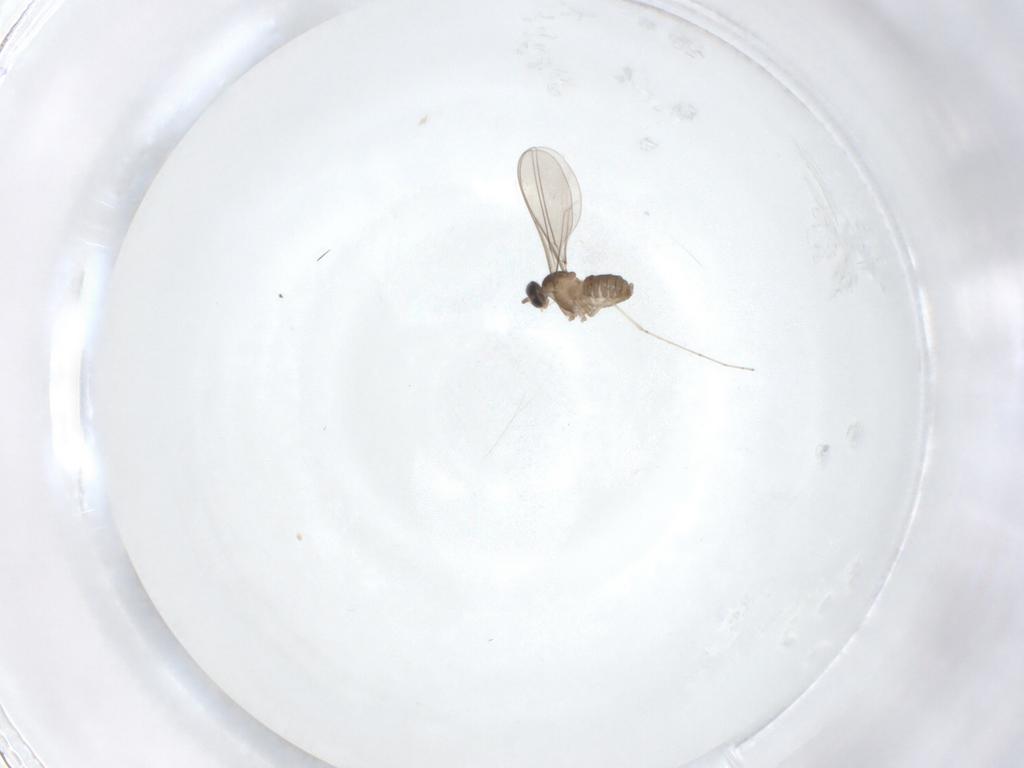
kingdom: Animalia
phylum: Arthropoda
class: Insecta
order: Diptera
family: Cecidomyiidae
